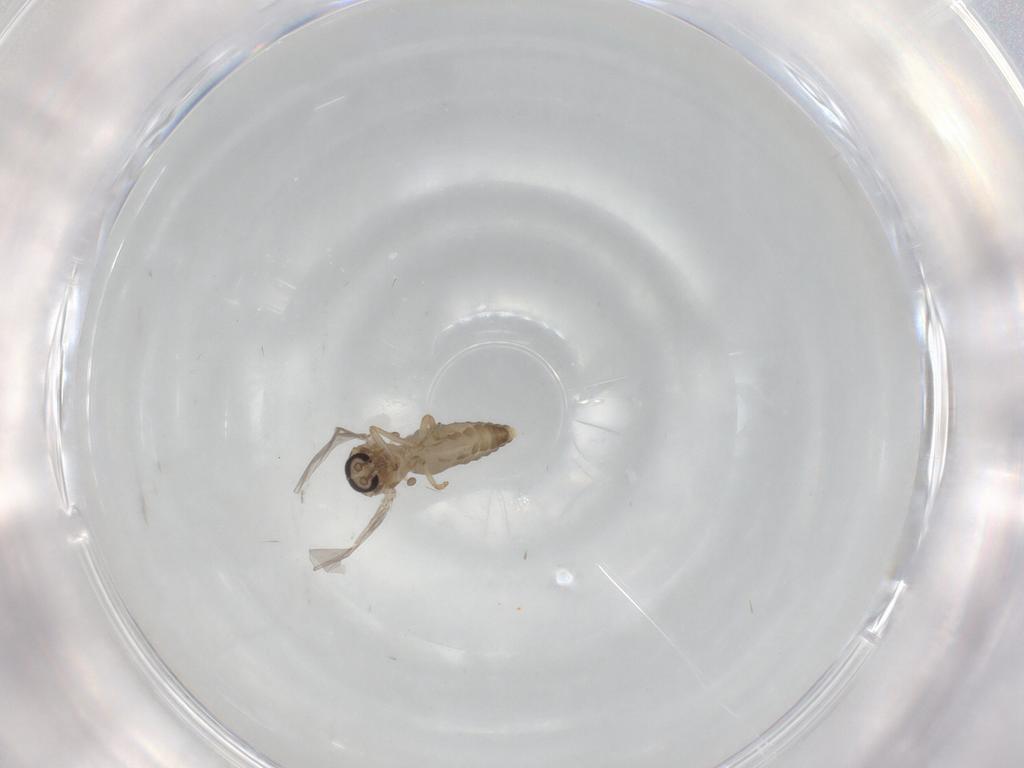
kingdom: Animalia
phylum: Arthropoda
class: Insecta
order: Diptera
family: Ceratopogonidae
